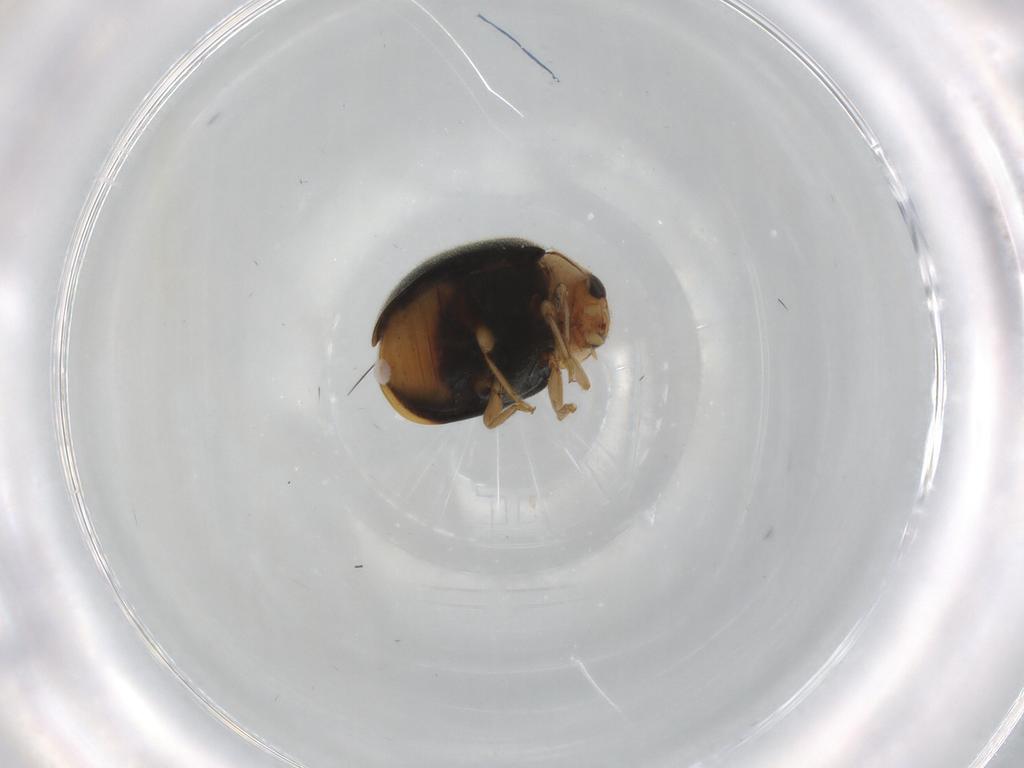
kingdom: Animalia
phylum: Arthropoda
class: Insecta
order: Coleoptera
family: Coccinellidae
